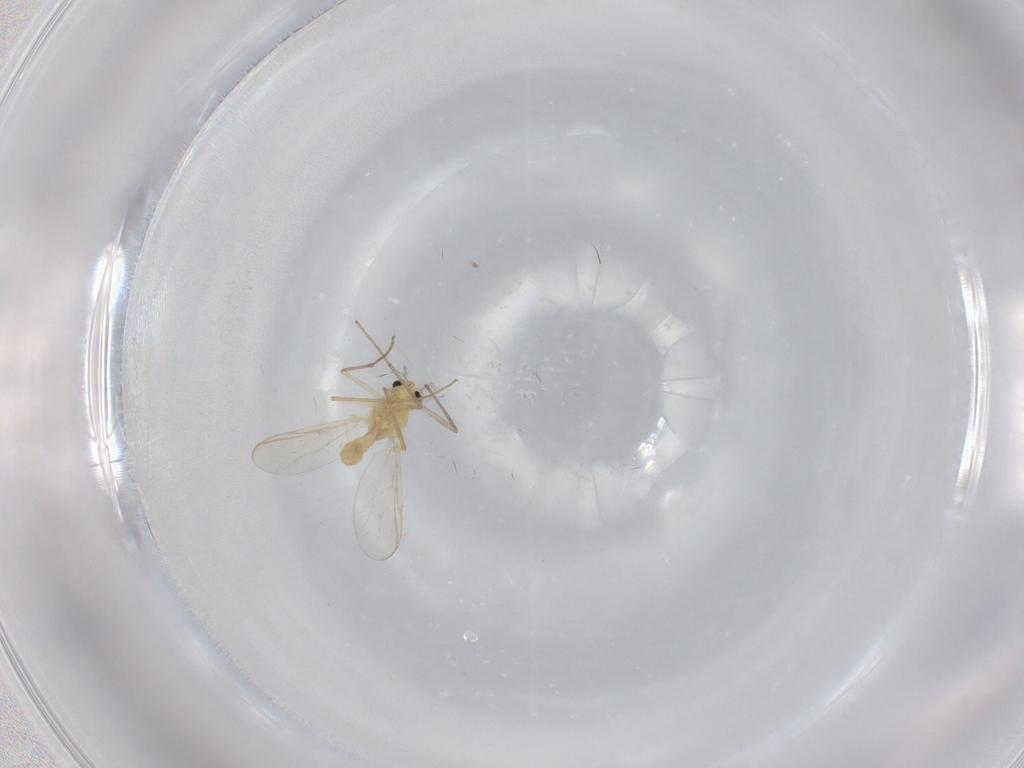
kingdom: Animalia
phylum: Arthropoda
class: Insecta
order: Diptera
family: Chironomidae
